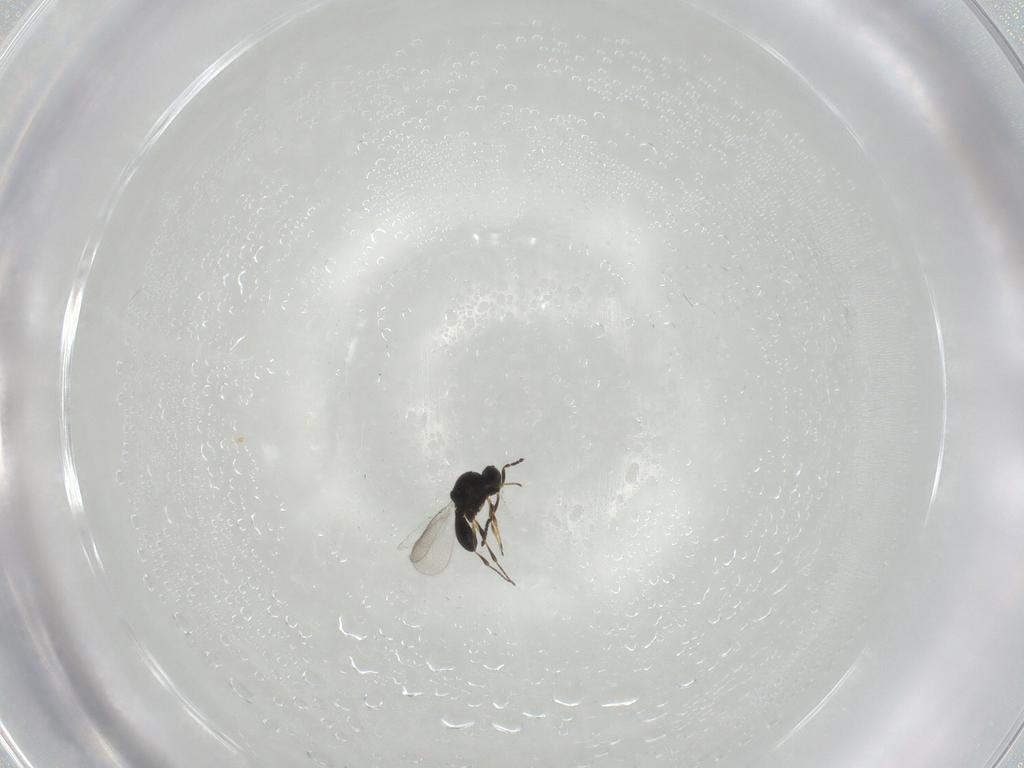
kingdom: Animalia
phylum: Arthropoda
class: Insecta
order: Hymenoptera
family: Platygastridae
